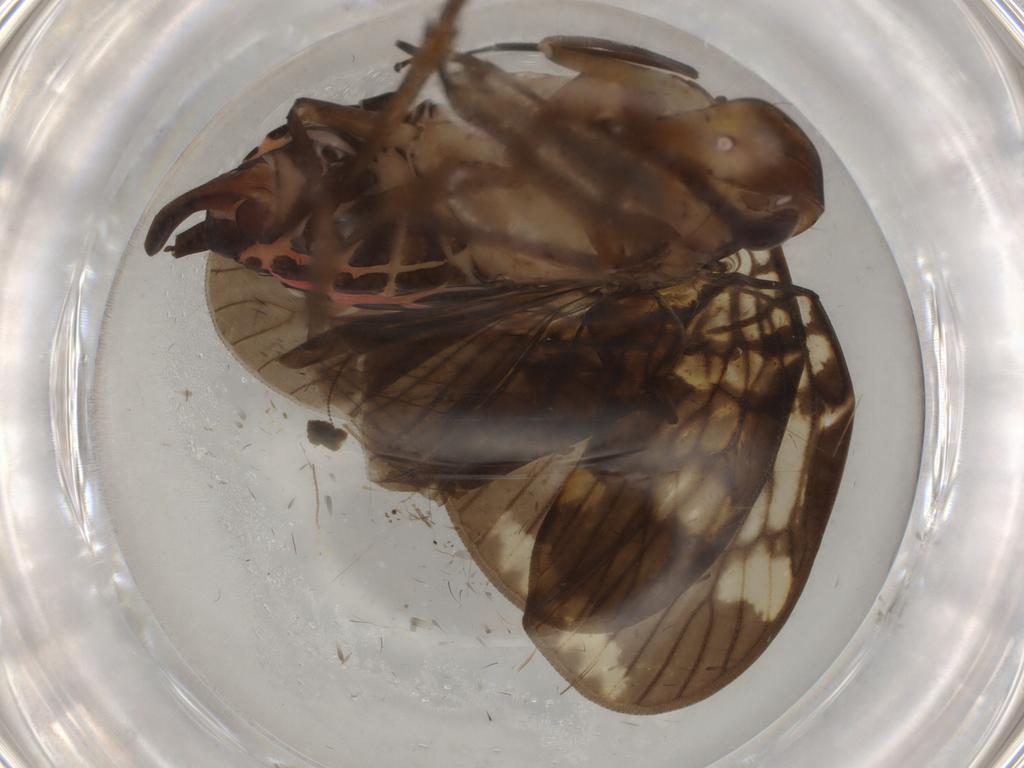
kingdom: Animalia
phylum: Arthropoda
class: Insecta
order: Hemiptera
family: Cixiidae
